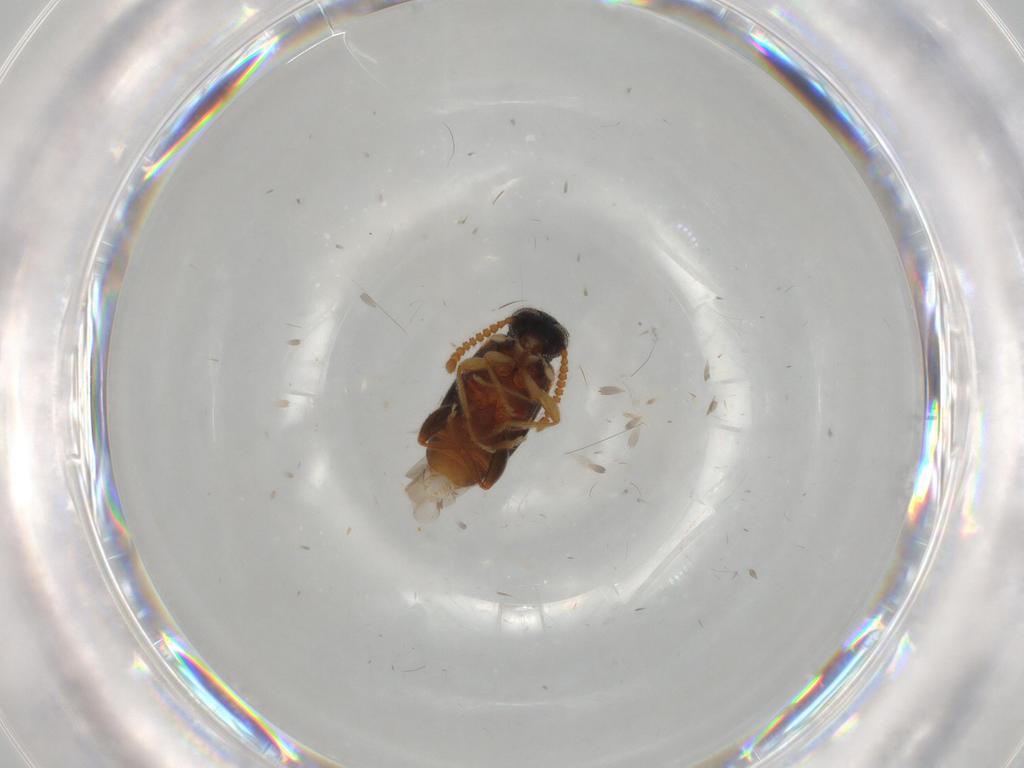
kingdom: Animalia
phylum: Arthropoda
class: Insecta
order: Coleoptera
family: Aderidae
